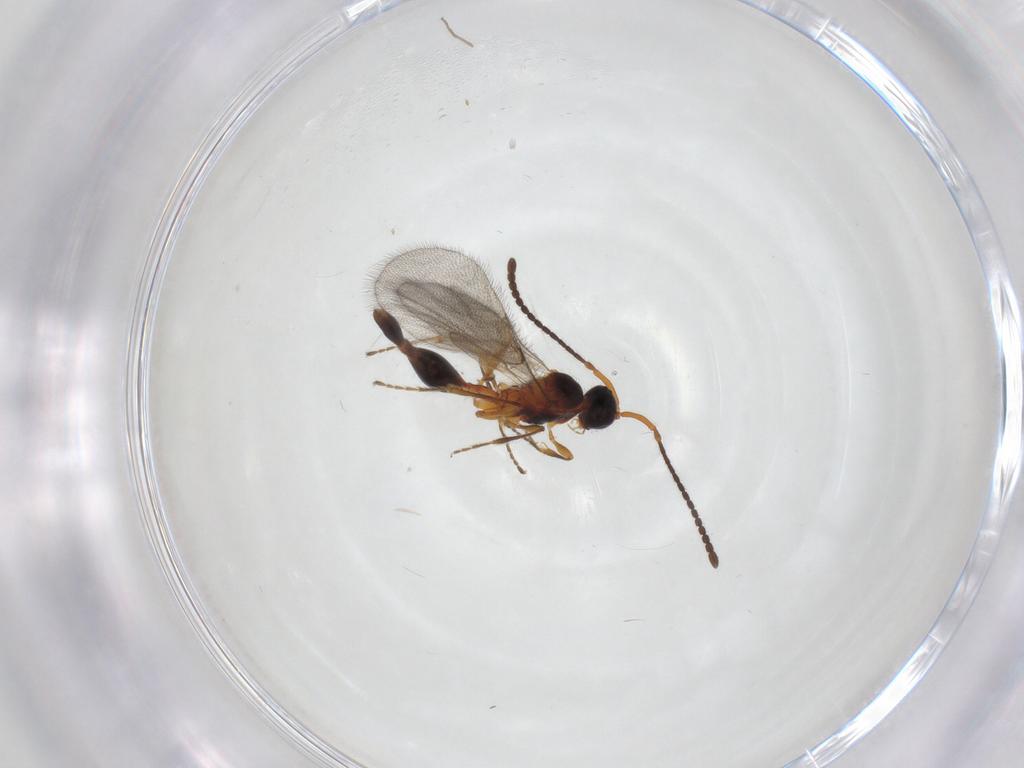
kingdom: Animalia
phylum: Arthropoda
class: Insecta
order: Hymenoptera
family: Diapriidae
